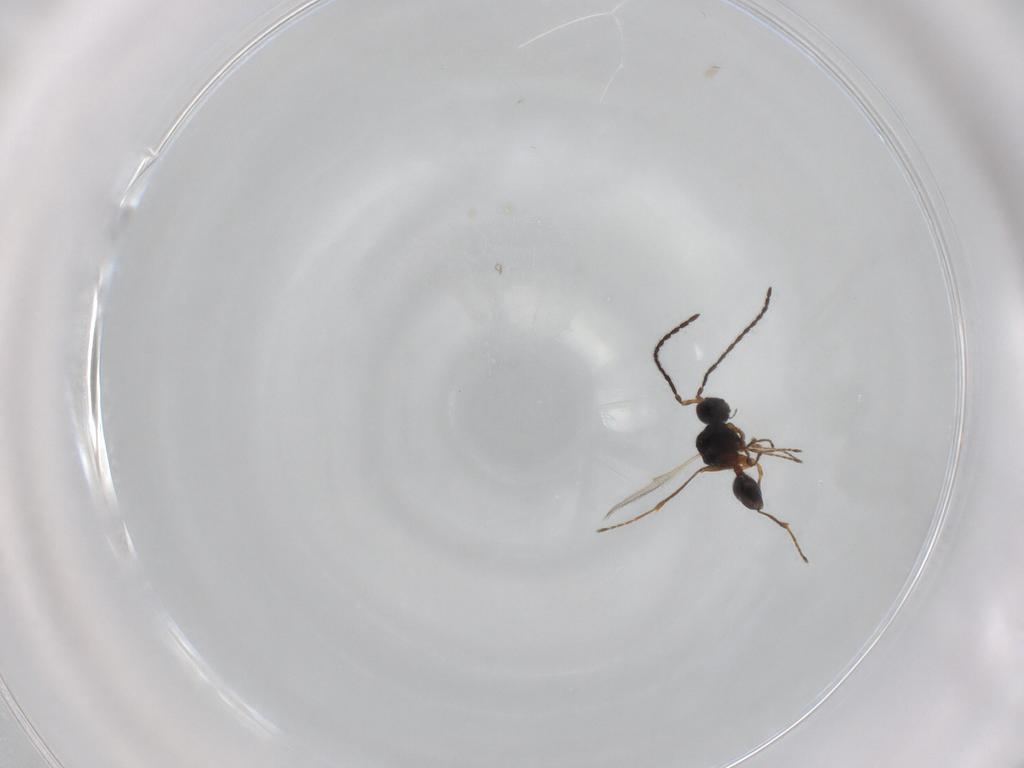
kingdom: Animalia
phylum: Arthropoda
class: Insecta
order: Hymenoptera
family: Diapriidae
